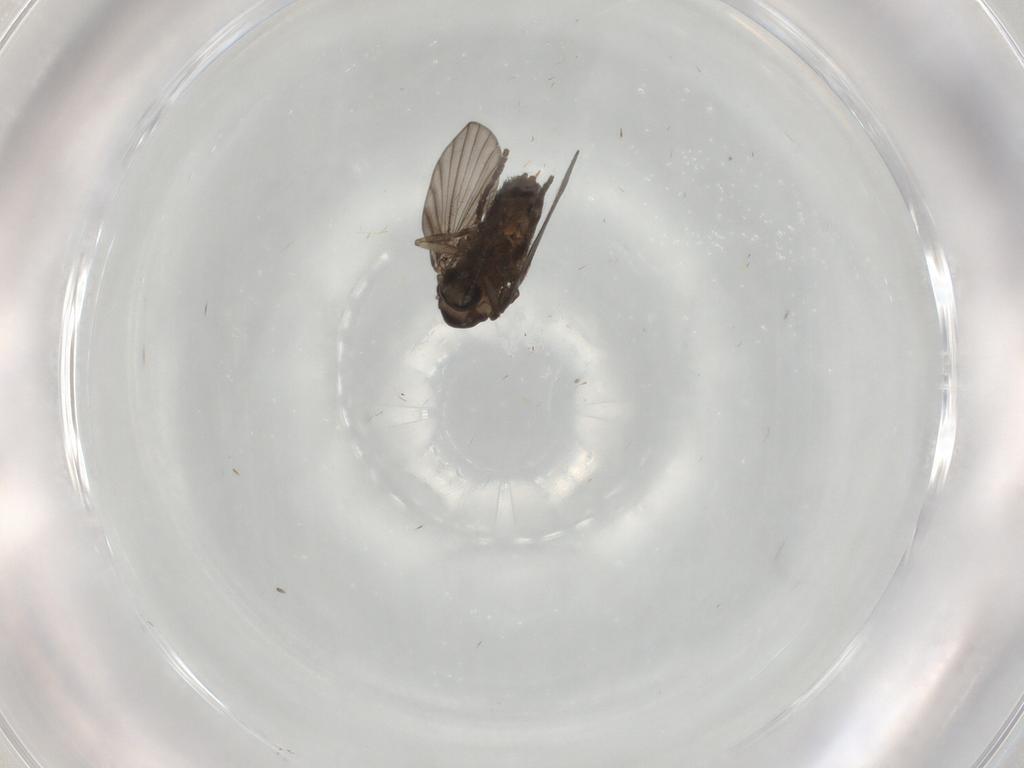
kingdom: Animalia
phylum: Arthropoda
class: Insecta
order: Diptera
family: Psychodidae
